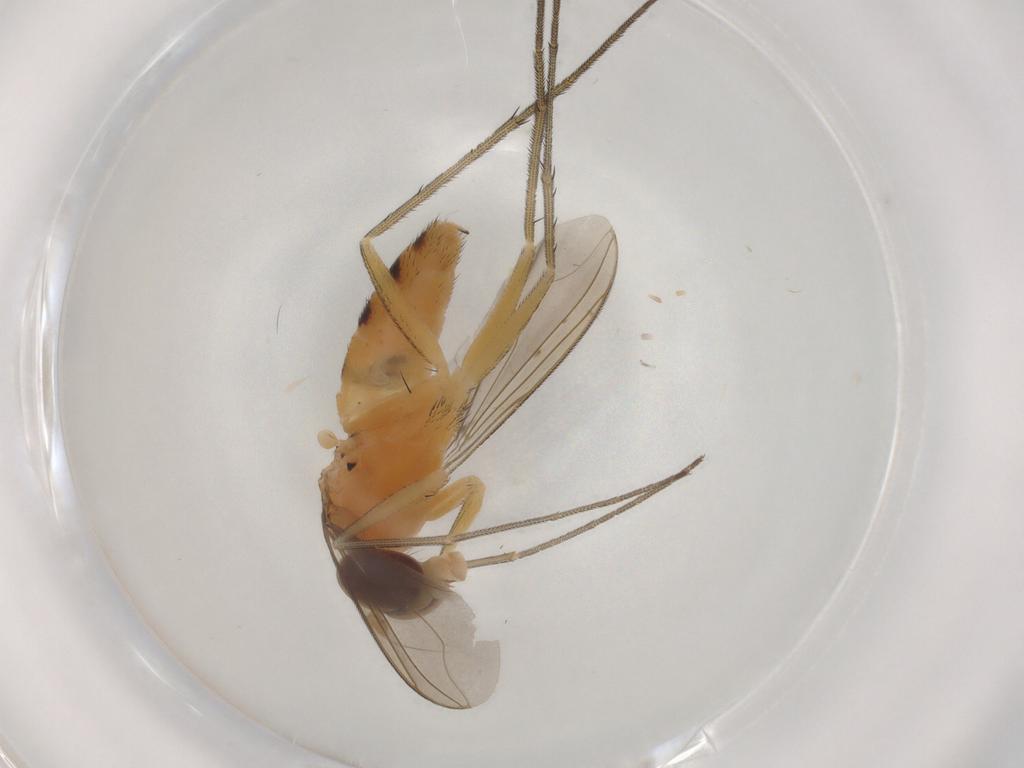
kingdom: Animalia
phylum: Arthropoda
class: Insecta
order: Diptera
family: Dolichopodidae
